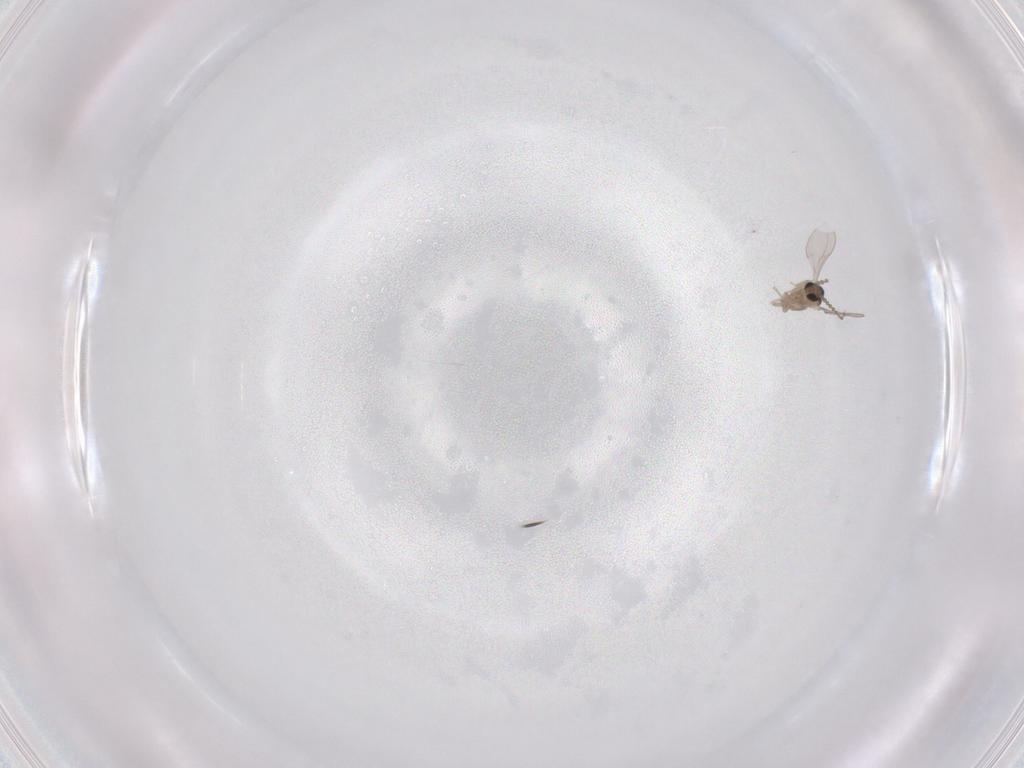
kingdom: Animalia
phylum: Arthropoda
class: Insecta
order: Diptera
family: Cecidomyiidae
